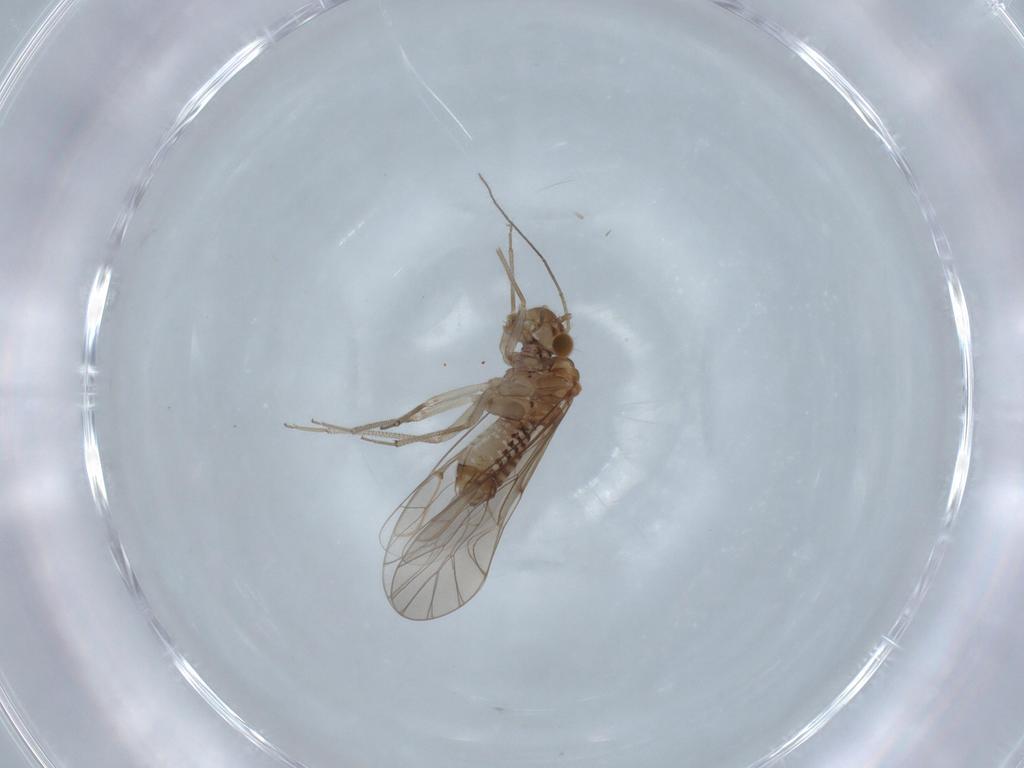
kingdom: Animalia
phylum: Arthropoda
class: Insecta
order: Psocodea
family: Lachesillidae
